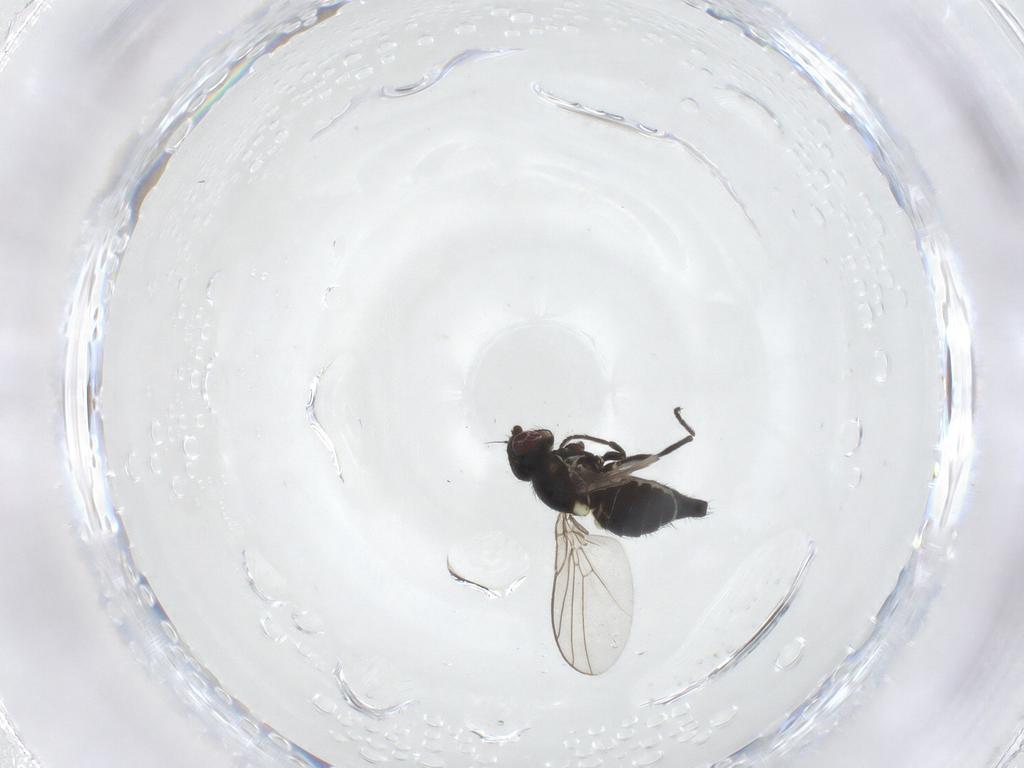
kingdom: Animalia
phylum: Arthropoda
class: Insecta
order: Diptera
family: Agromyzidae
